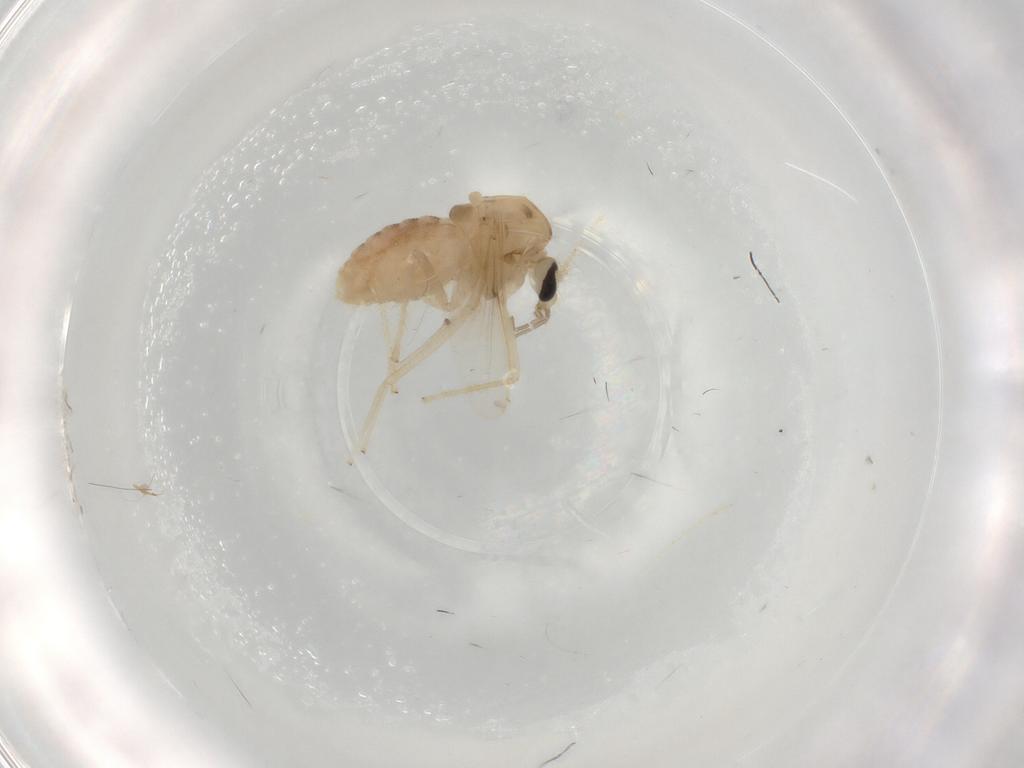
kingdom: Animalia
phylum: Arthropoda
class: Insecta
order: Diptera
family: Chironomidae
